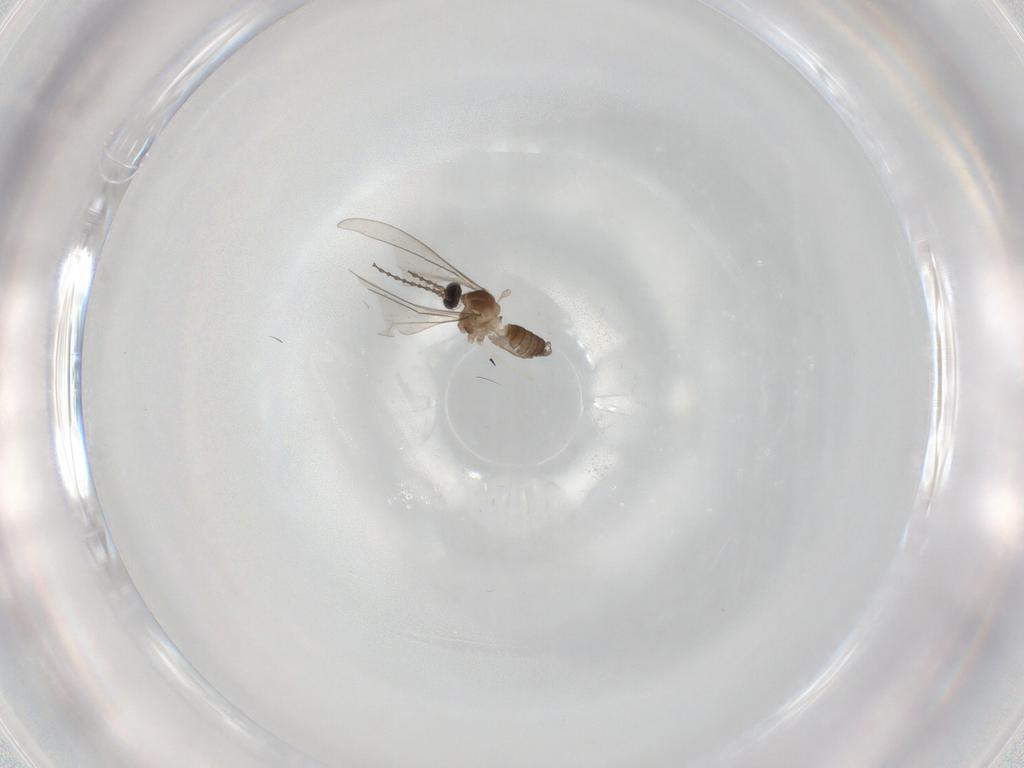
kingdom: Animalia
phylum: Arthropoda
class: Insecta
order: Diptera
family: Cecidomyiidae
